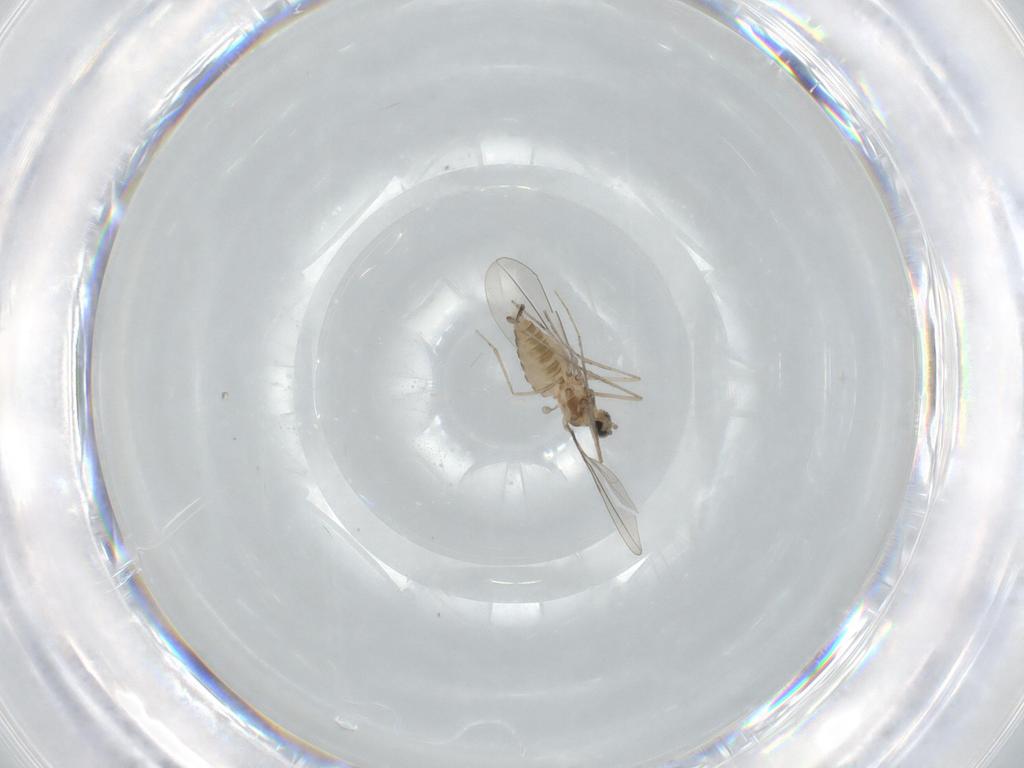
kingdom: Animalia
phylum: Arthropoda
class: Insecta
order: Diptera
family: Cecidomyiidae
